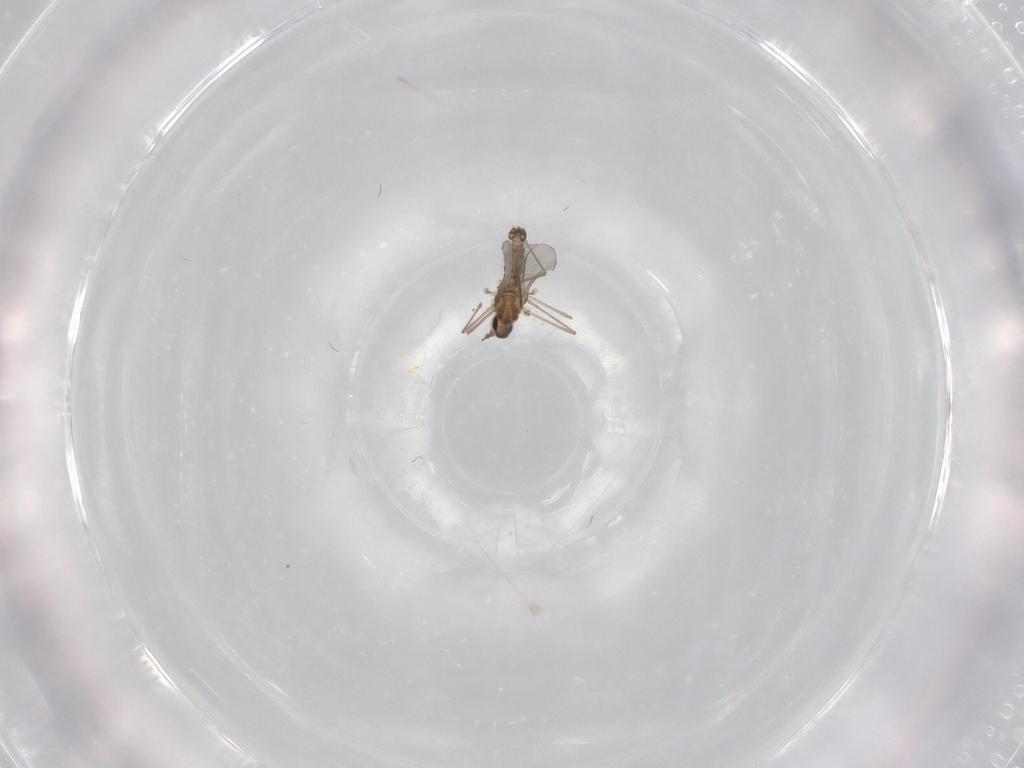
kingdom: Animalia
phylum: Arthropoda
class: Insecta
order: Diptera
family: Cecidomyiidae
